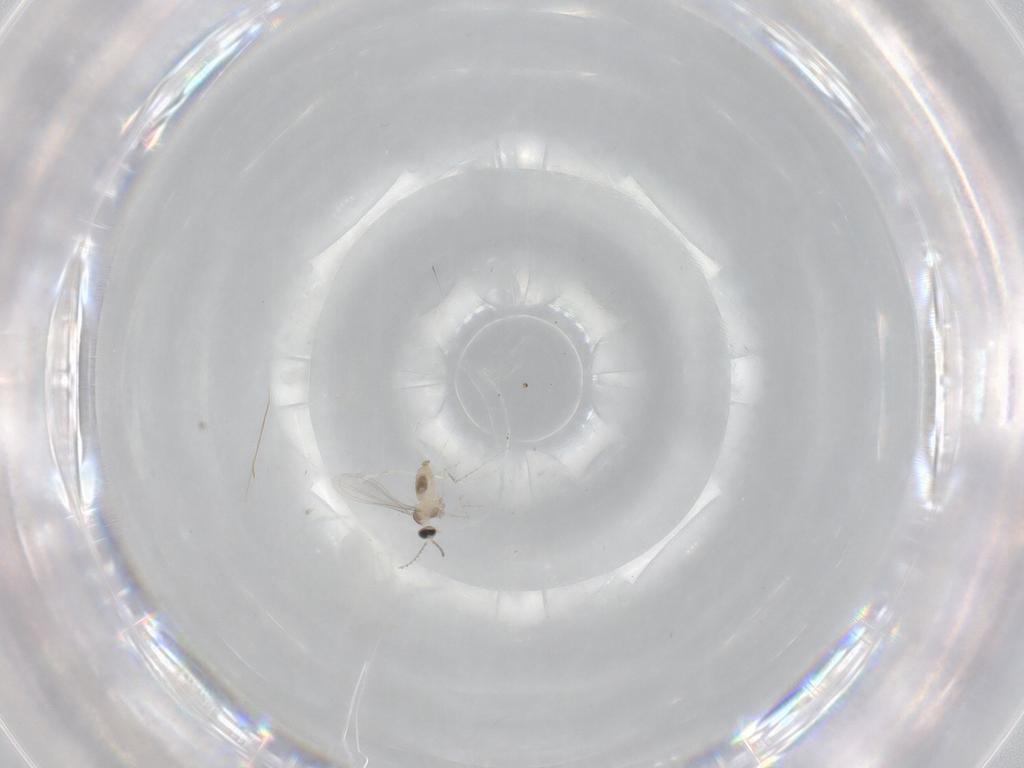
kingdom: Animalia
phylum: Arthropoda
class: Insecta
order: Diptera
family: Cecidomyiidae
